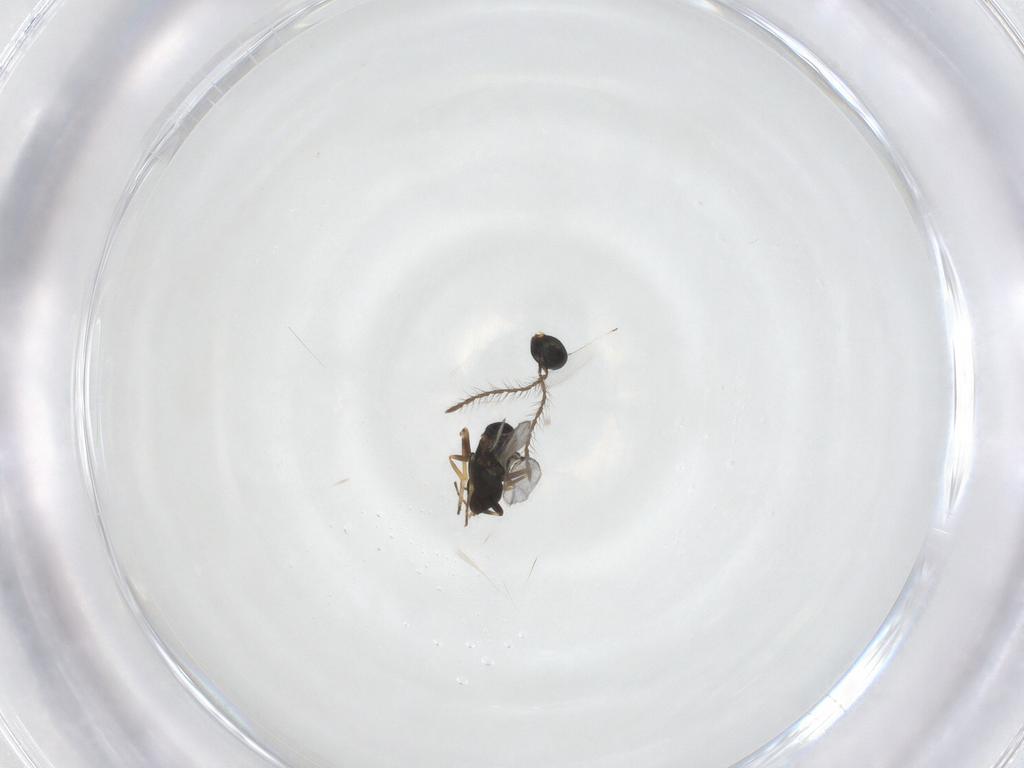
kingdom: Animalia
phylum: Arthropoda
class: Insecta
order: Hymenoptera
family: Encyrtidae
